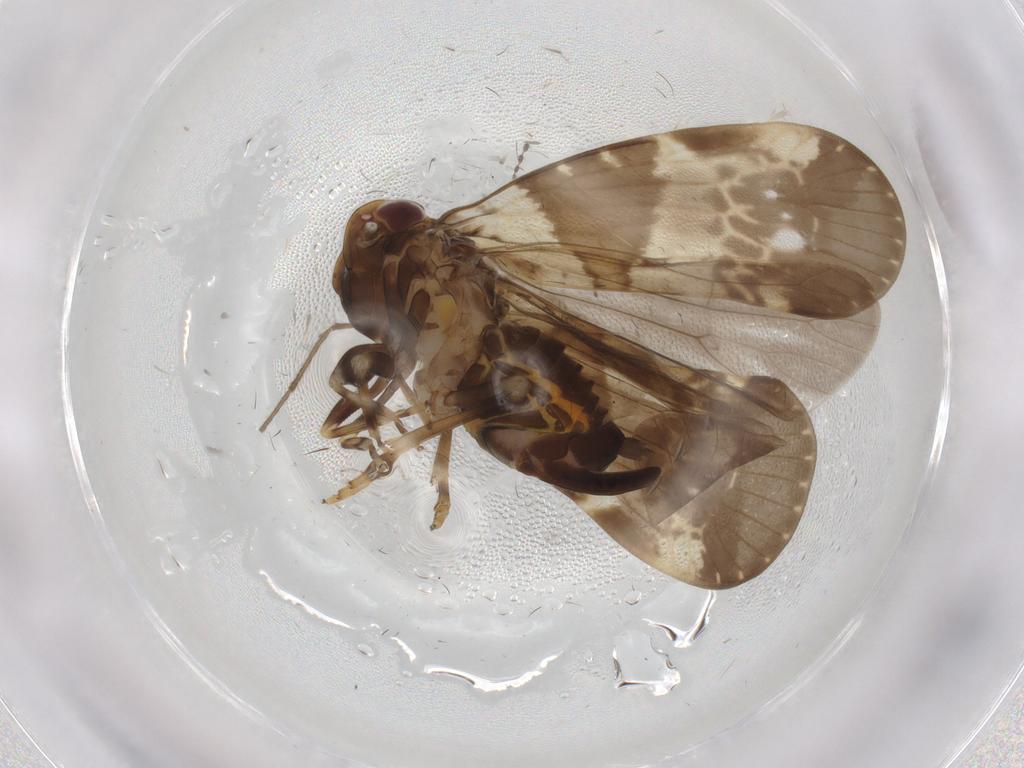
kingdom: Animalia
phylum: Arthropoda
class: Insecta
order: Hemiptera
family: Cixiidae
